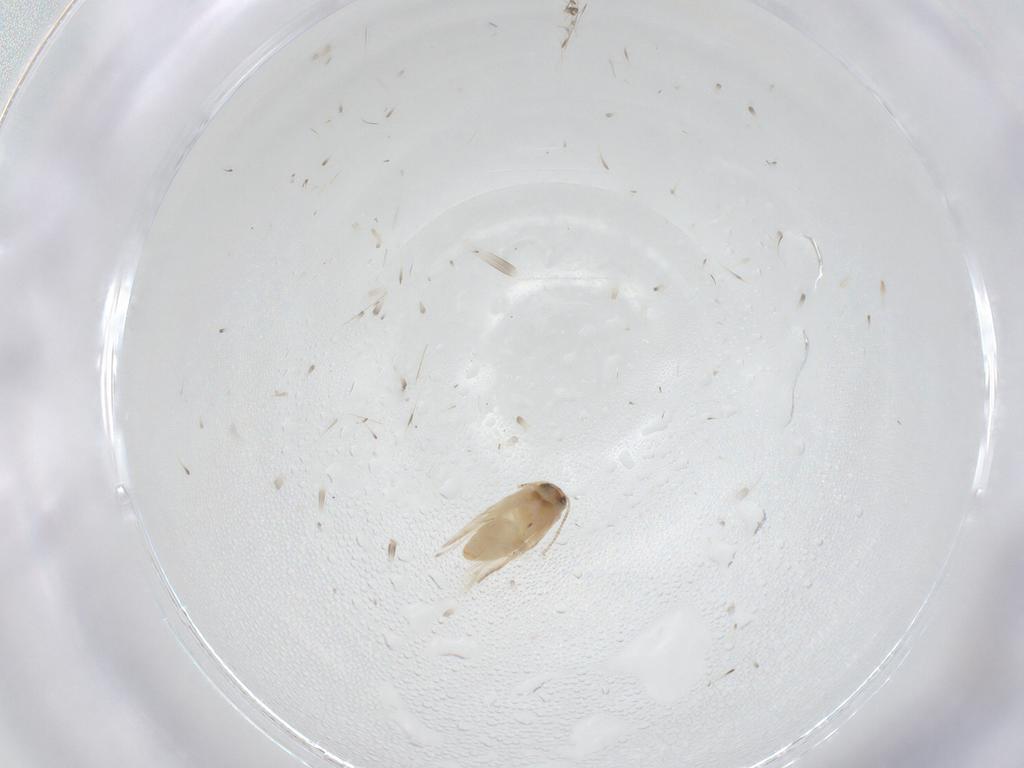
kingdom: Animalia
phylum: Arthropoda
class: Insecta
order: Lepidoptera
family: Crambidae
